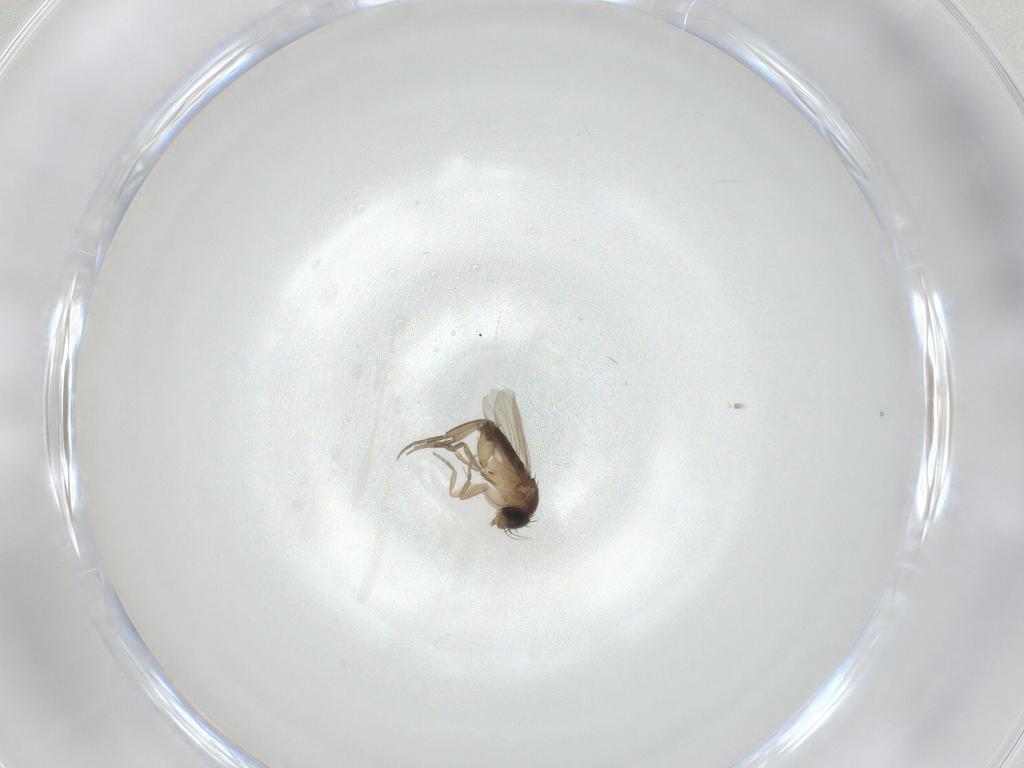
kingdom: Animalia
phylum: Arthropoda
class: Insecta
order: Diptera
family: Phoridae
